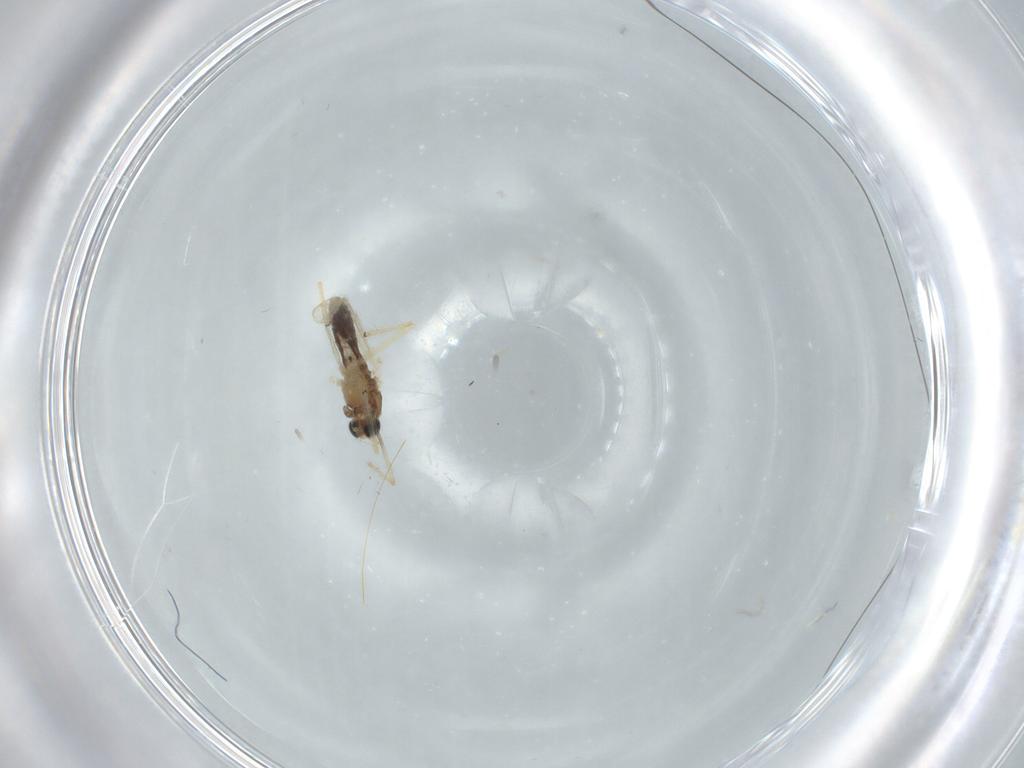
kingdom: Animalia
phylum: Arthropoda
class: Insecta
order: Diptera
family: Chironomidae
